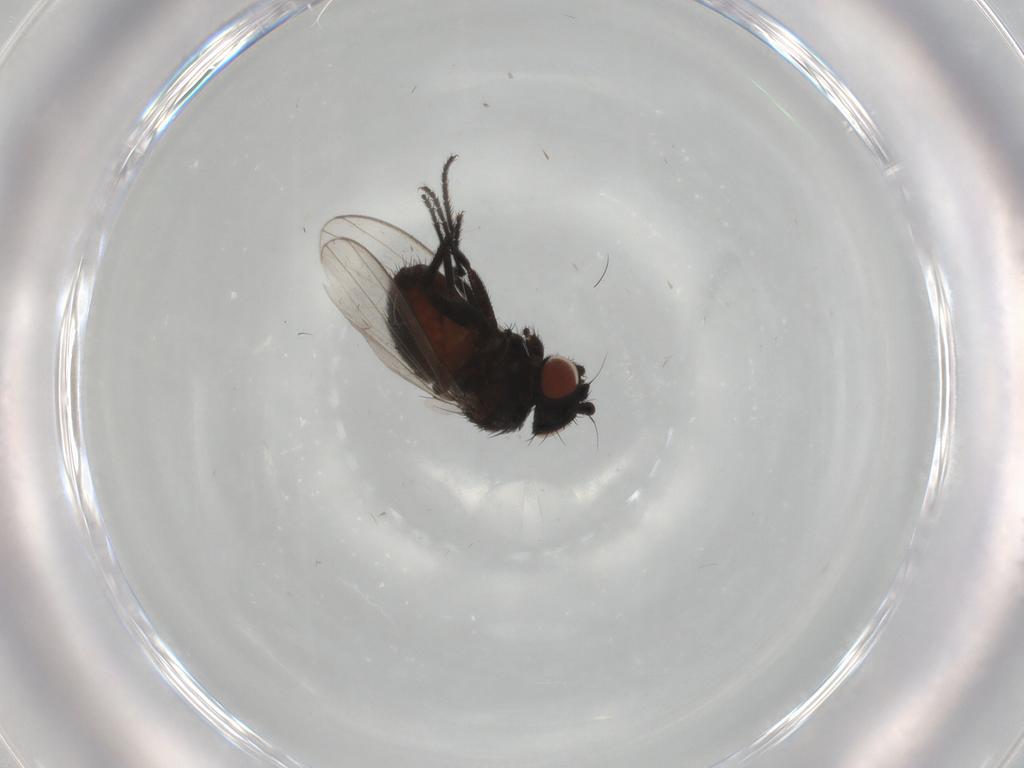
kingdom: Animalia
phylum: Arthropoda
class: Insecta
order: Diptera
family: Milichiidae
